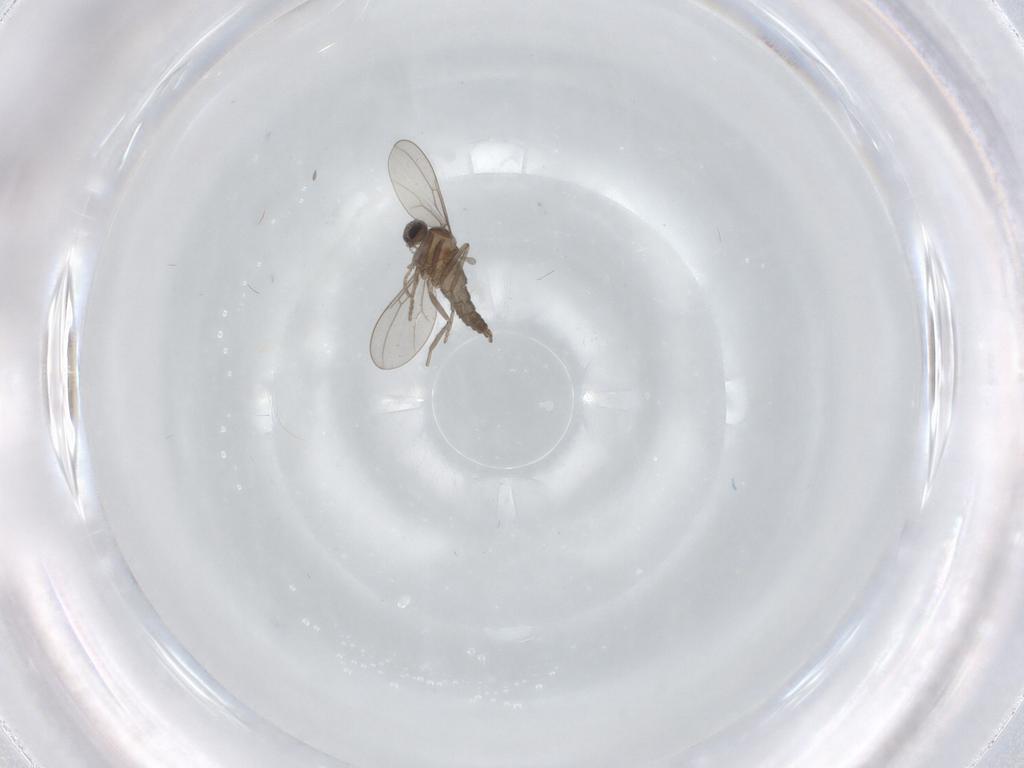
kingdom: Animalia
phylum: Arthropoda
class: Insecta
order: Diptera
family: Cecidomyiidae
